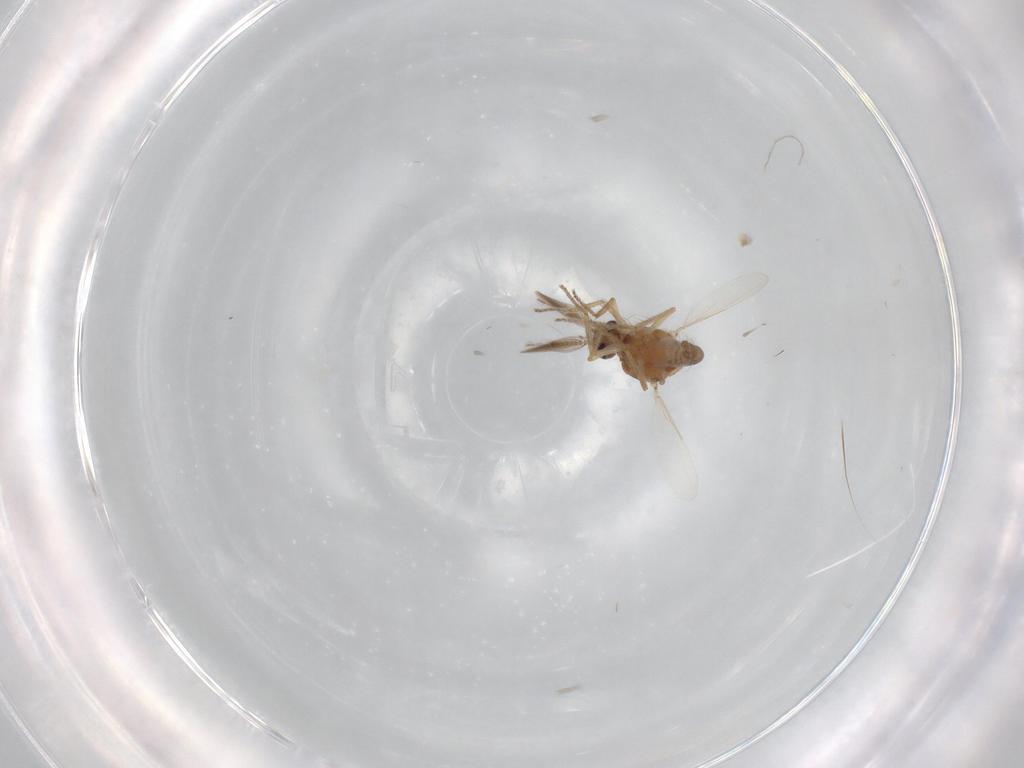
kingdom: Animalia
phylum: Arthropoda
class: Insecta
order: Diptera
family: Ceratopogonidae
